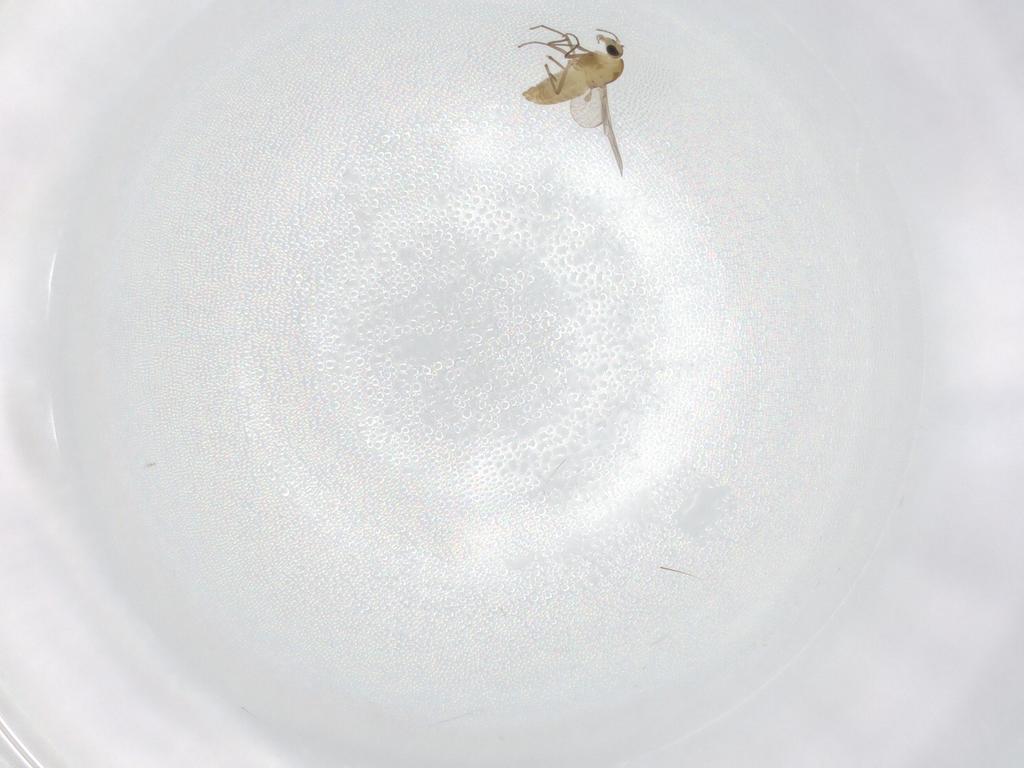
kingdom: Animalia
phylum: Arthropoda
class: Insecta
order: Diptera
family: Chironomidae
